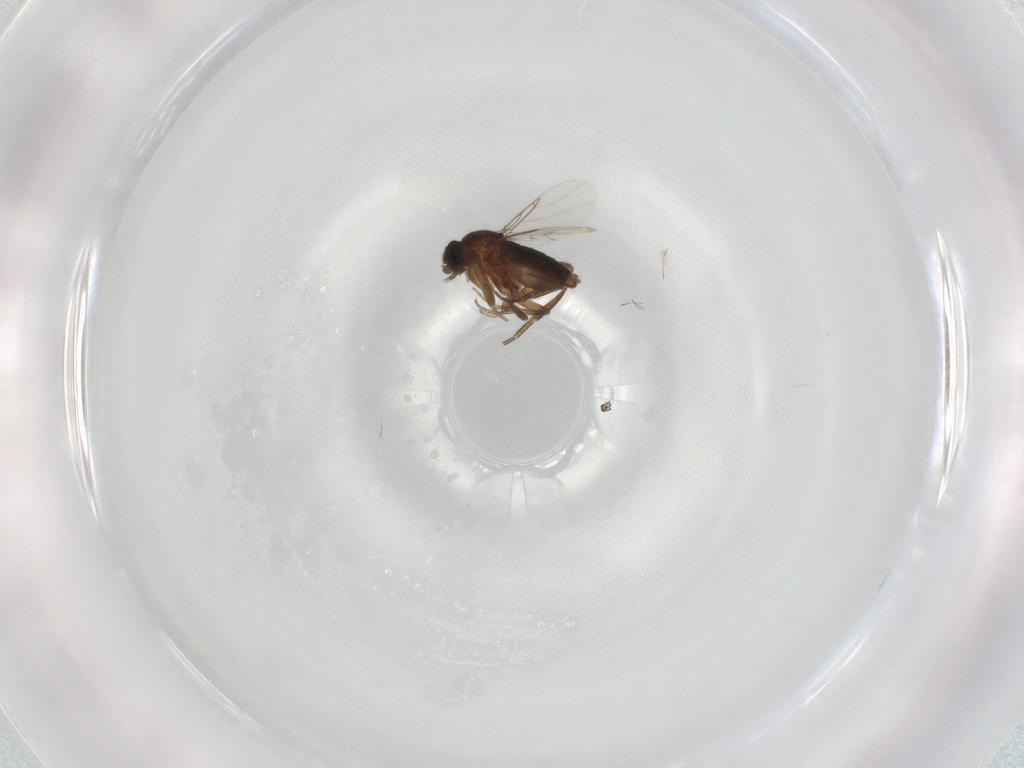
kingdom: Animalia
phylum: Arthropoda
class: Insecta
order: Diptera
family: Phoridae
